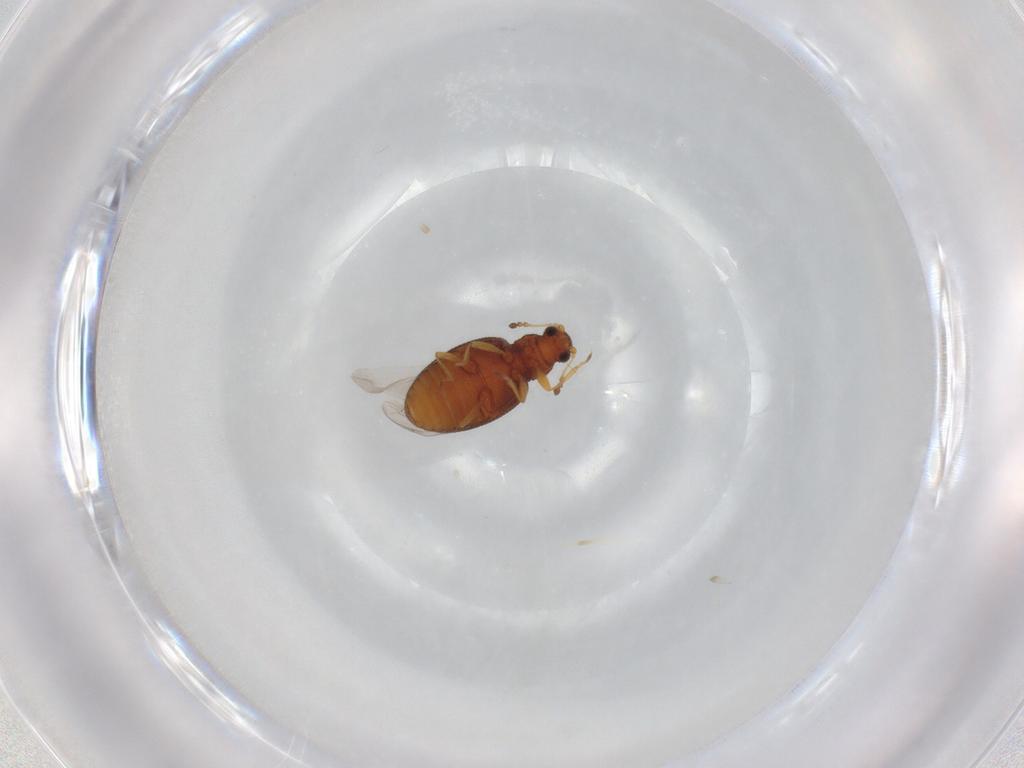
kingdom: Animalia
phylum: Arthropoda
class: Insecta
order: Coleoptera
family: Latridiidae
